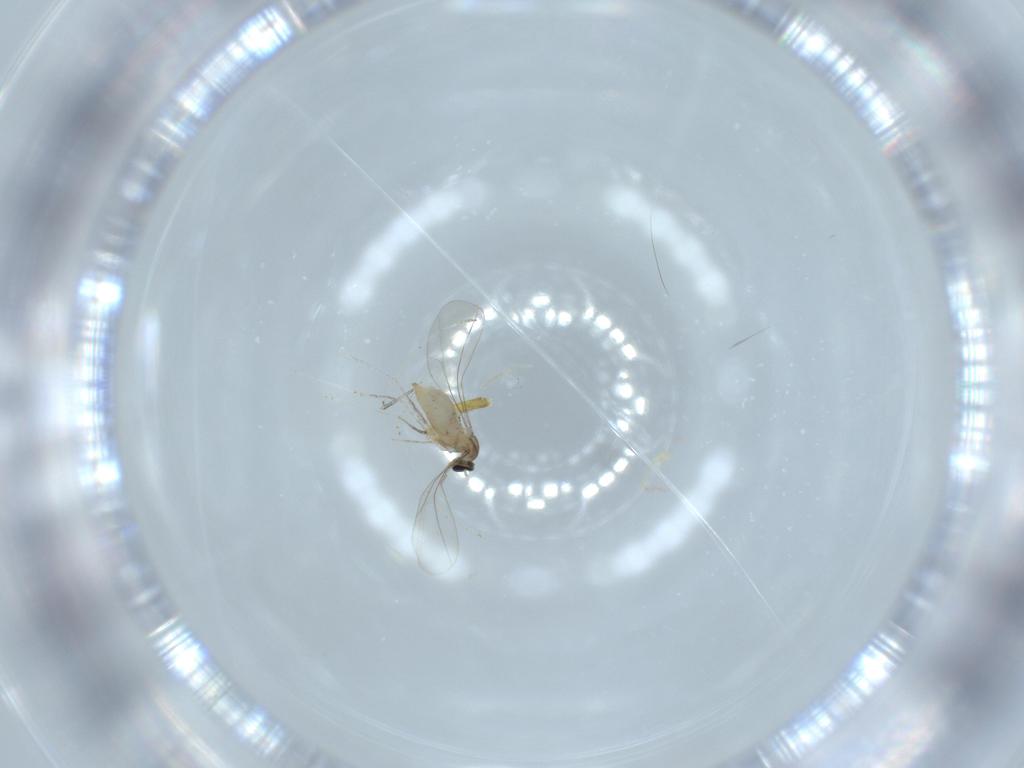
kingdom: Animalia
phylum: Arthropoda
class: Insecta
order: Diptera
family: Cecidomyiidae
